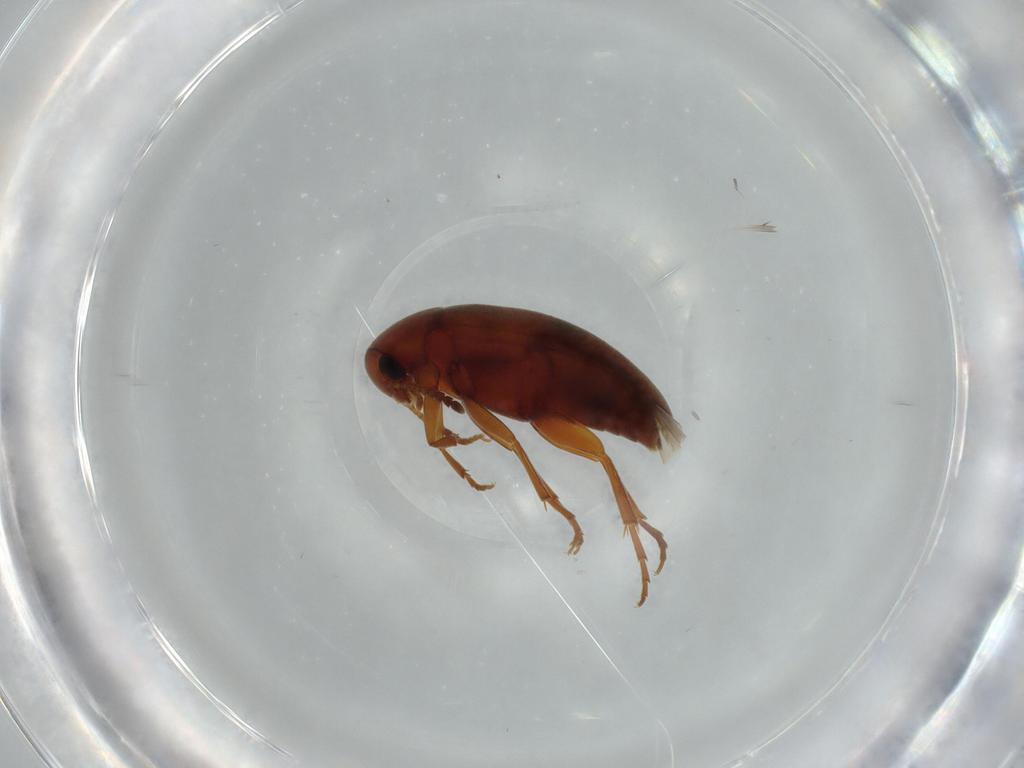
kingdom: Animalia
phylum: Arthropoda
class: Insecta
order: Coleoptera
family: Scraptiidae
